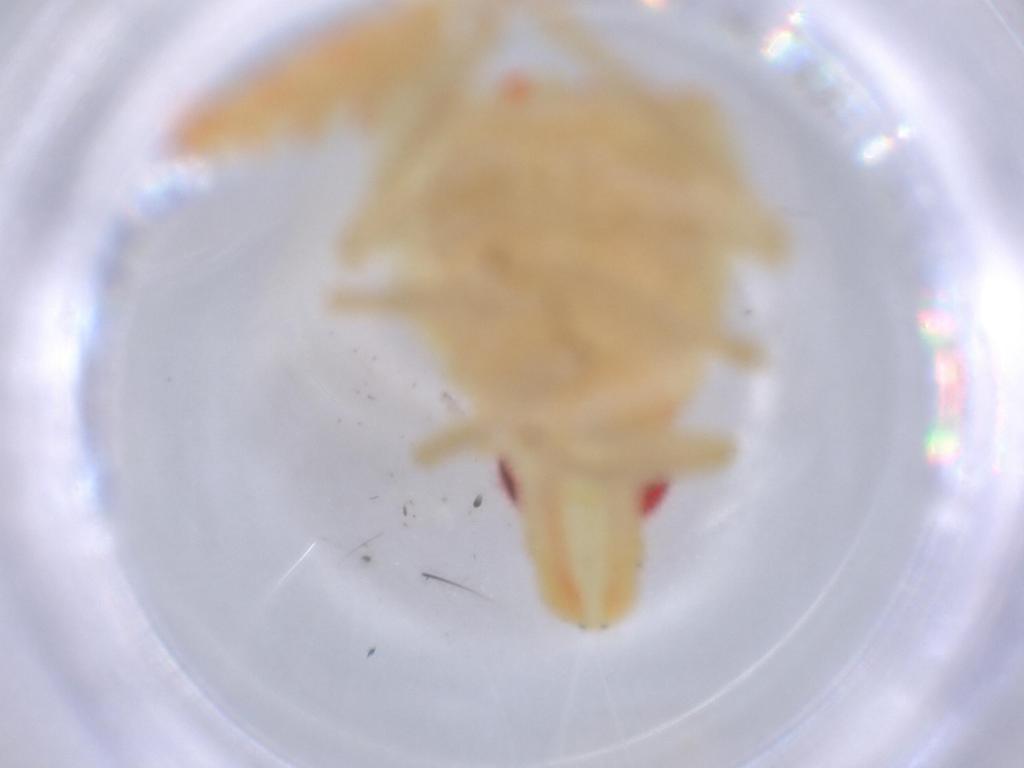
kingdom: Animalia
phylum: Arthropoda
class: Insecta
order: Hemiptera
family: Tropiduchidae
